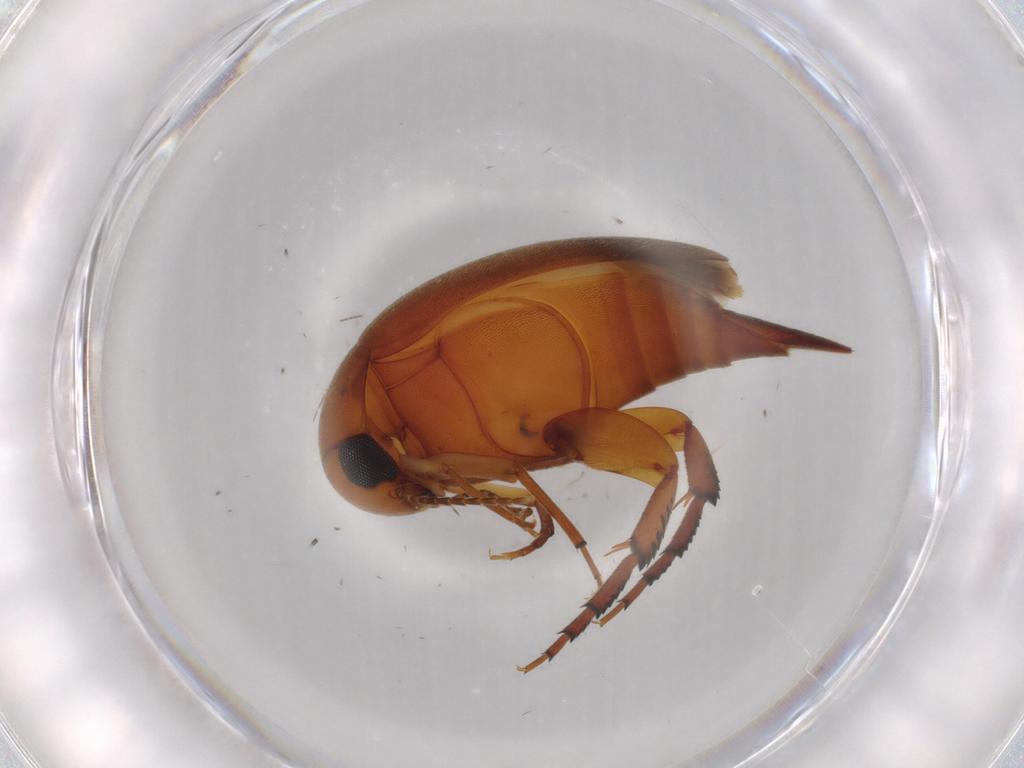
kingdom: Animalia
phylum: Arthropoda
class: Insecta
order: Coleoptera
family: Mordellidae
